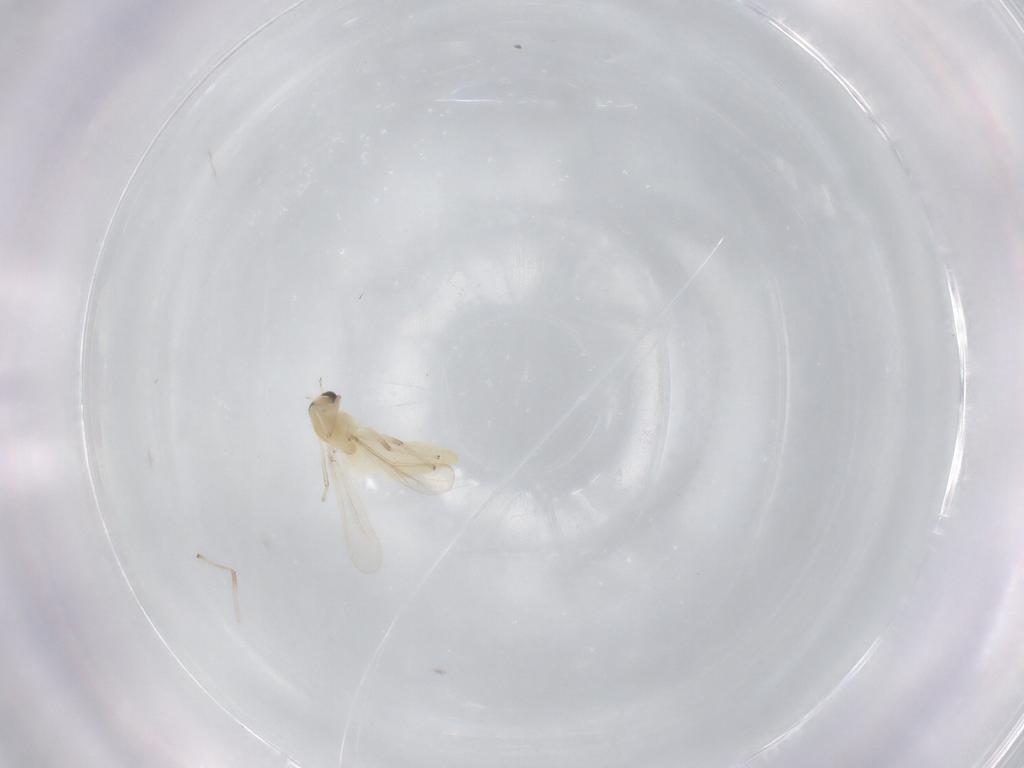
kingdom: Animalia
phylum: Arthropoda
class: Insecta
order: Diptera
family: Chironomidae
